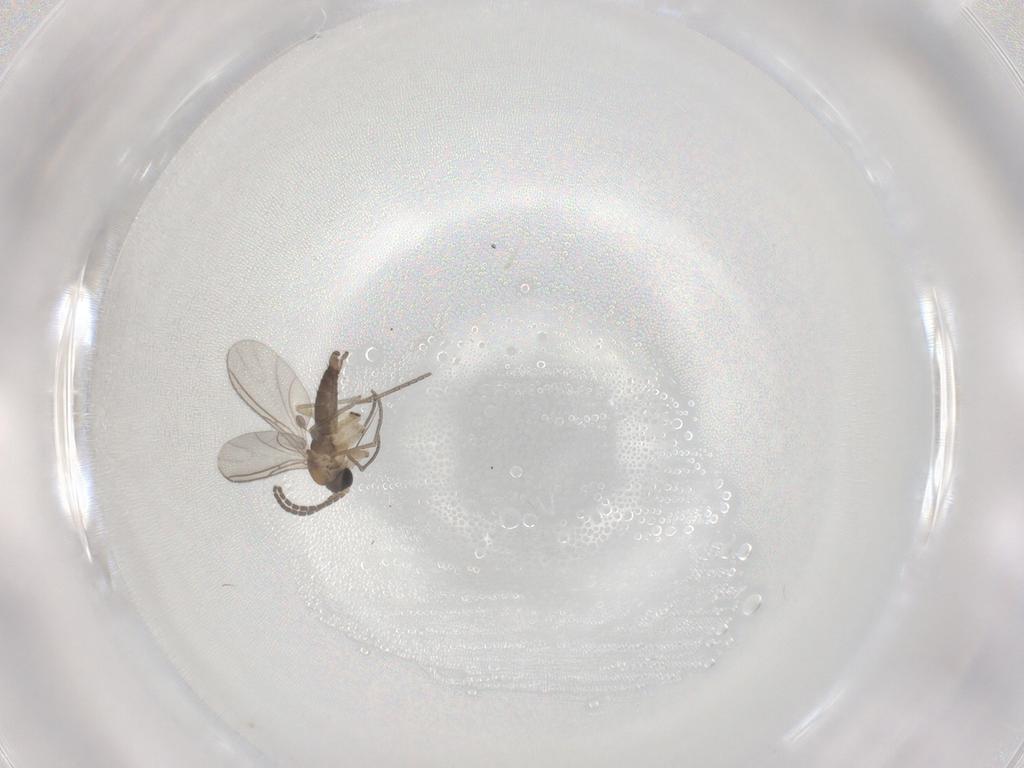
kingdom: Animalia
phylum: Arthropoda
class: Insecta
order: Diptera
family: Sciaridae
